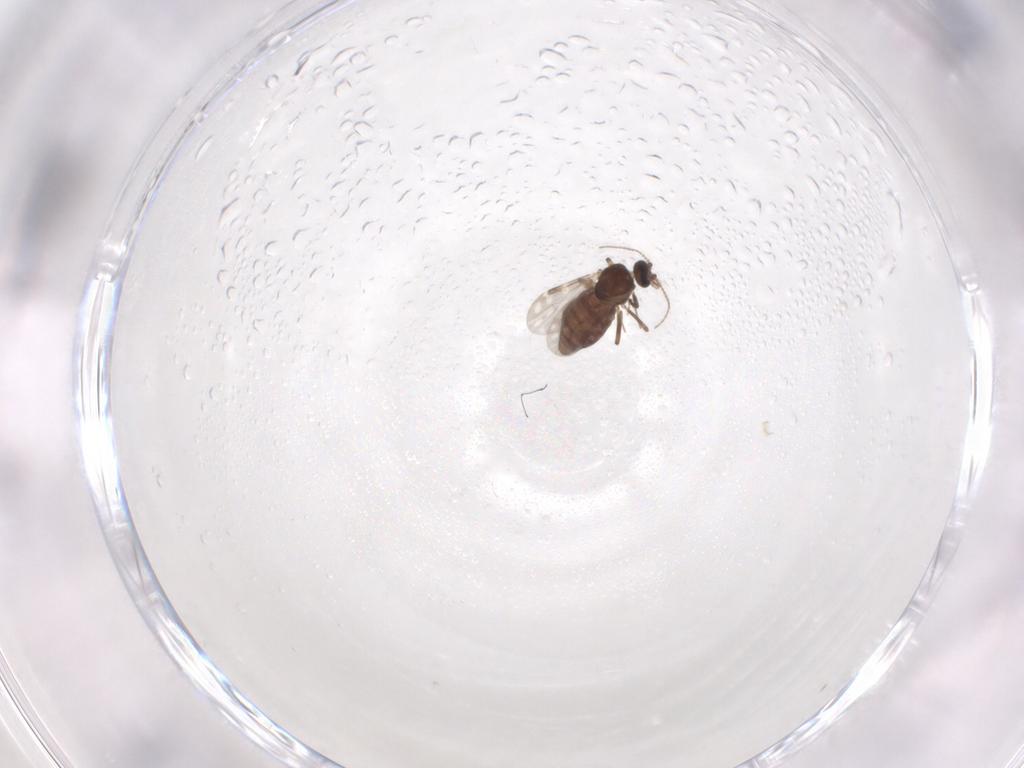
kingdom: Animalia
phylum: Arthropoda
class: Insecta
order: Diptera
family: Ceratopogonidae
